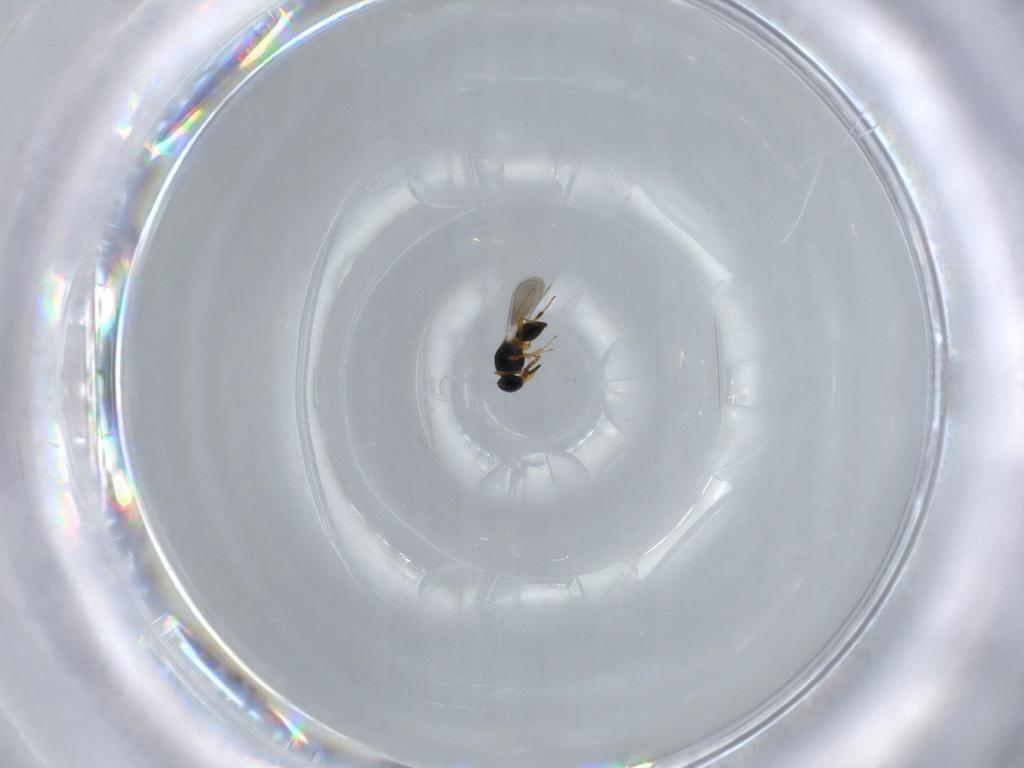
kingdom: Animalia
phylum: Arthropoda
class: Insecta
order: Hymenoptera
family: Platygastridae
